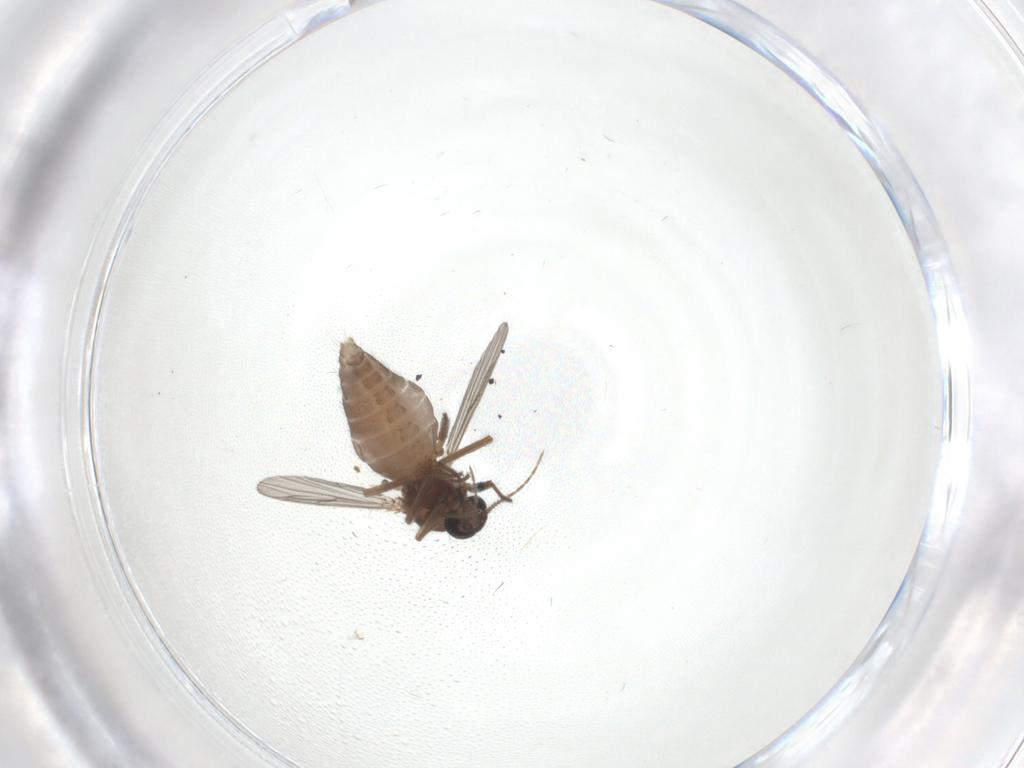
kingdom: Animalia
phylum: Arthropoda
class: Insecta
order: Diptera
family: Ceratopogonidae
